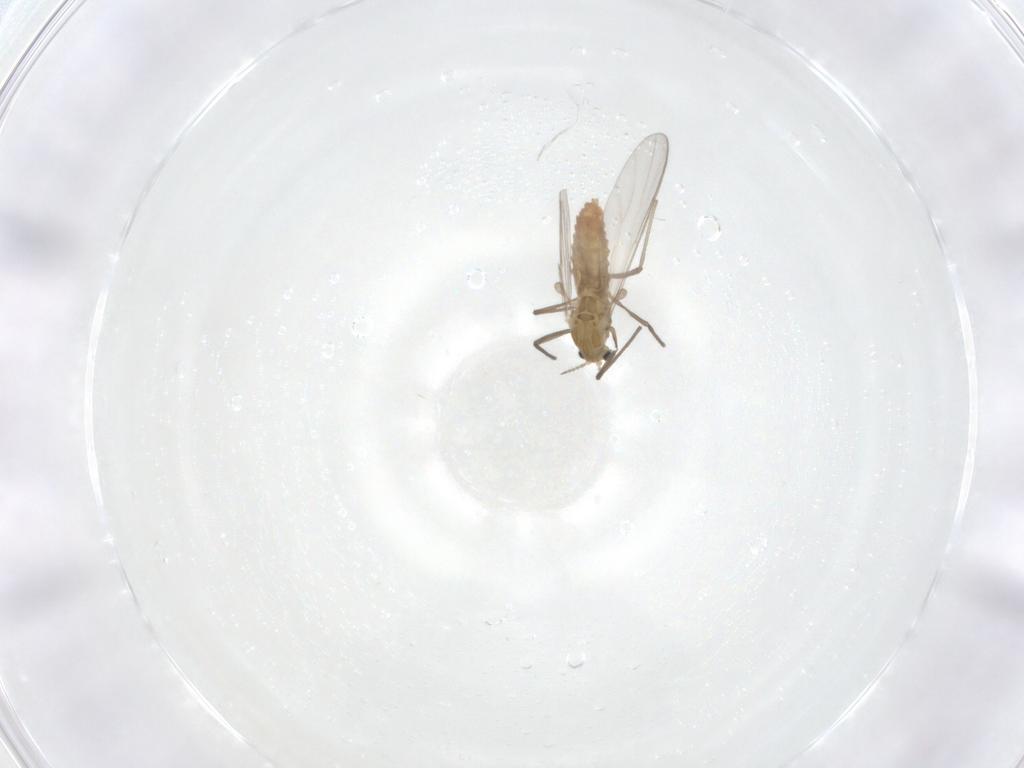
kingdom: Animalia
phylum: Arthropoda
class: Insecta
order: Diptera
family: Chironomidae
